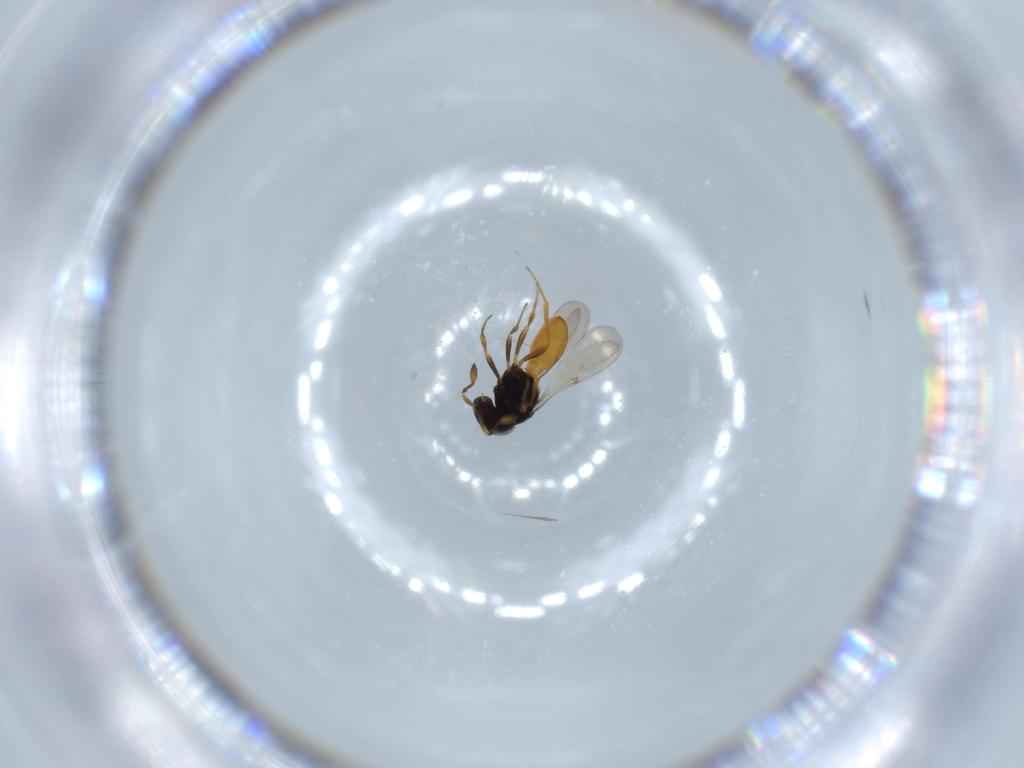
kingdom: Animalia
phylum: Arthropoda
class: Insecta
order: Hymenoptera
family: Scelionidae
